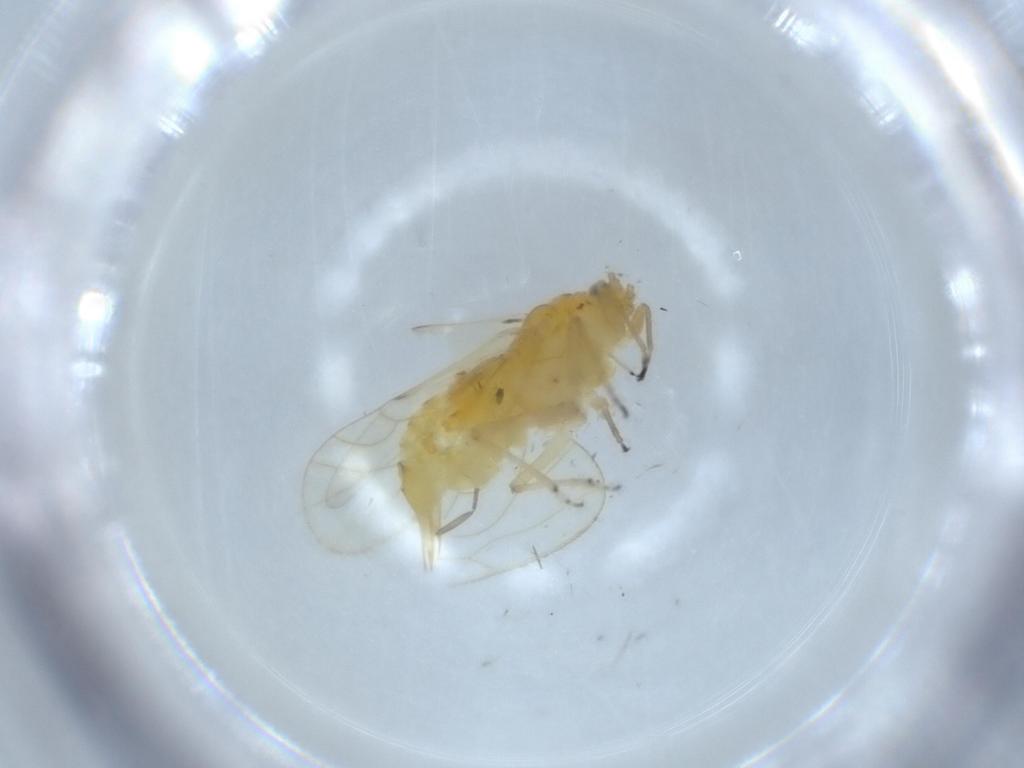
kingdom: Animalia
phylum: Arthropoda
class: Insecta
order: Hemiptera
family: Psyllidae
